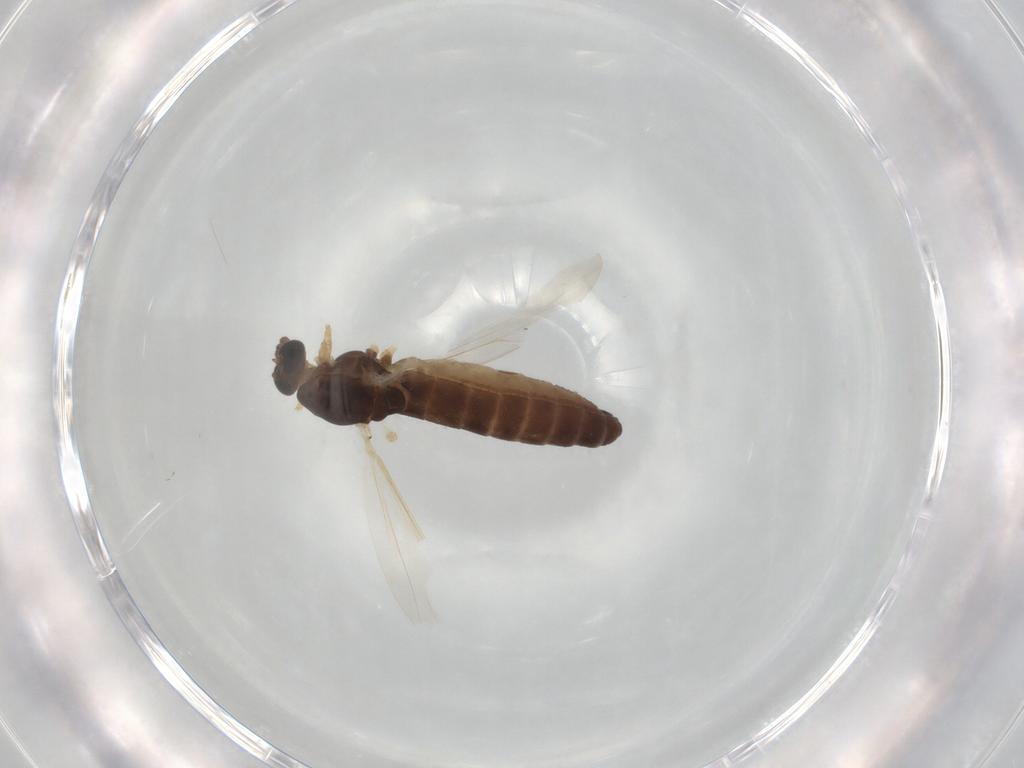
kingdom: Animalia
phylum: Arthropoda
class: Insecta
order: Diptera
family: Chironomidae
